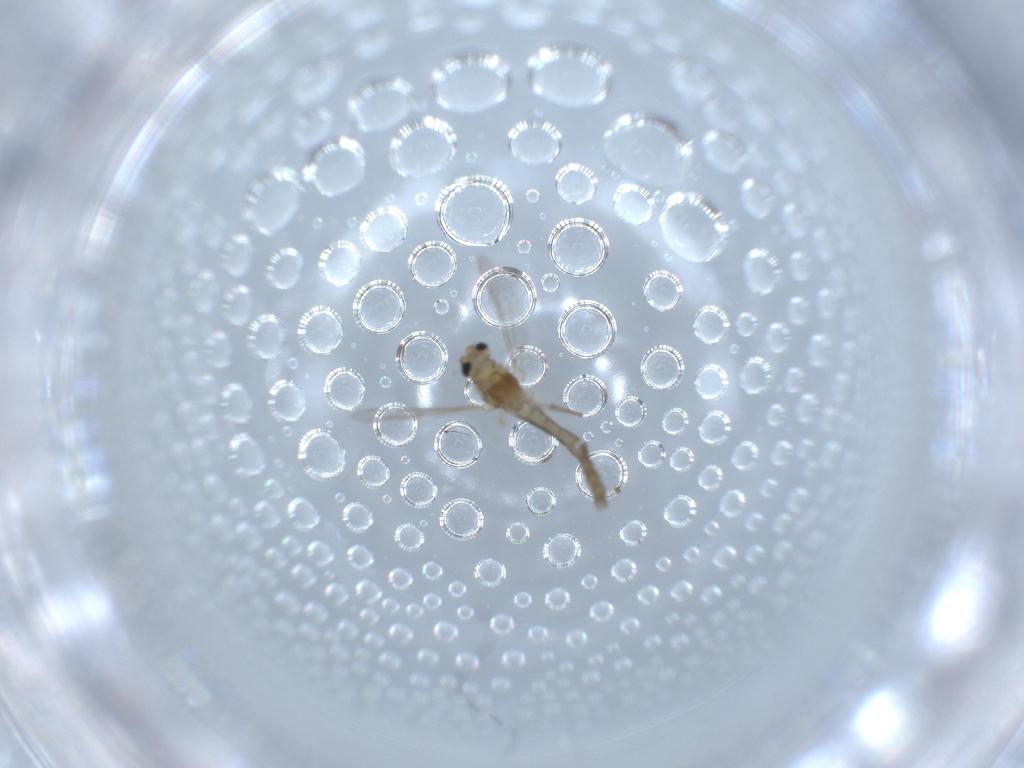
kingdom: Animalia
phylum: Arthropoda
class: Insecta
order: Diptera
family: Chironomidae
